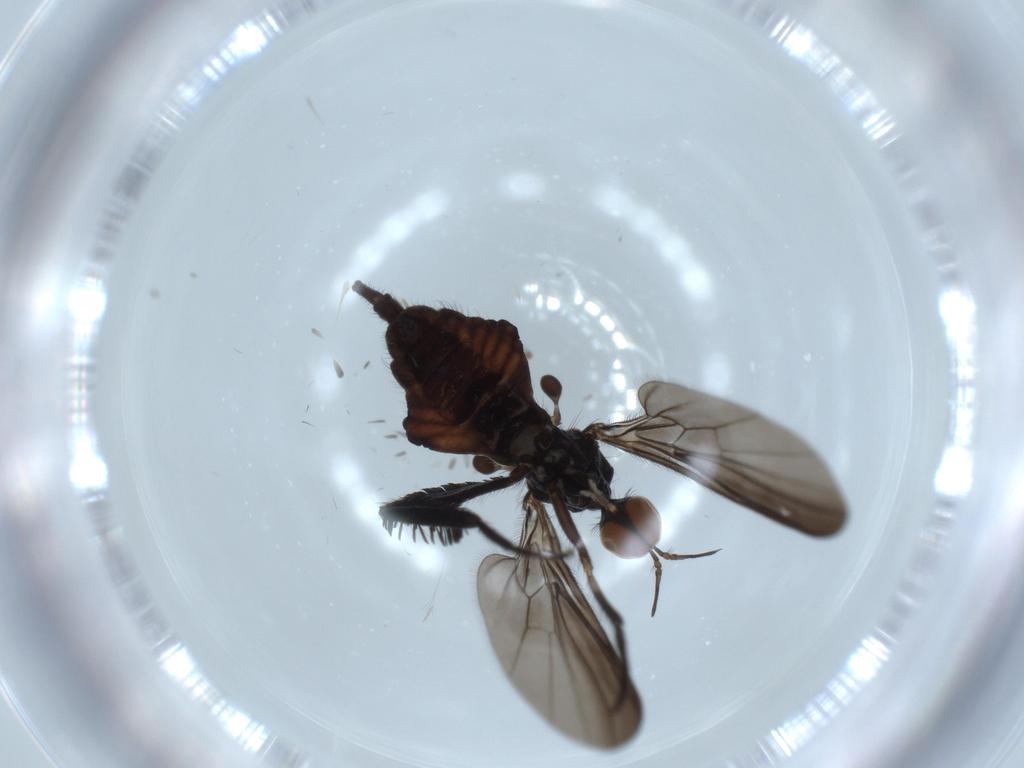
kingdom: Animalia
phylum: Arthropoda
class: Insecta
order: Diptera
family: Empididae
